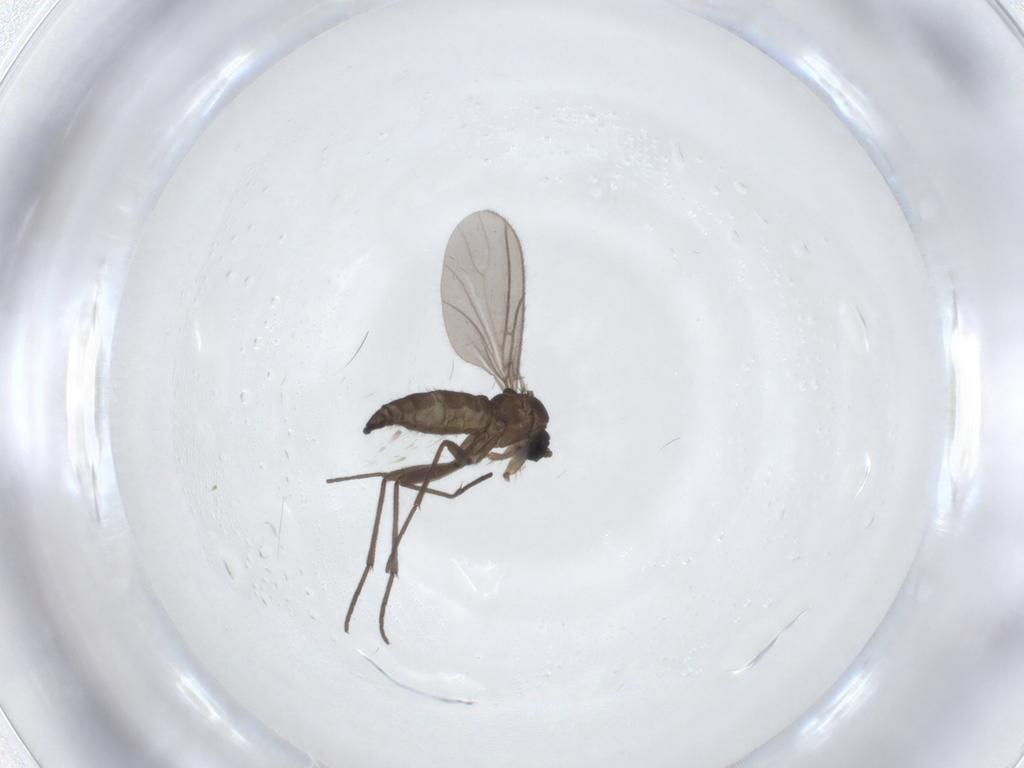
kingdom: Animalia
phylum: Arthropoda
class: Insecta
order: Diptera
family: Sciaridae
